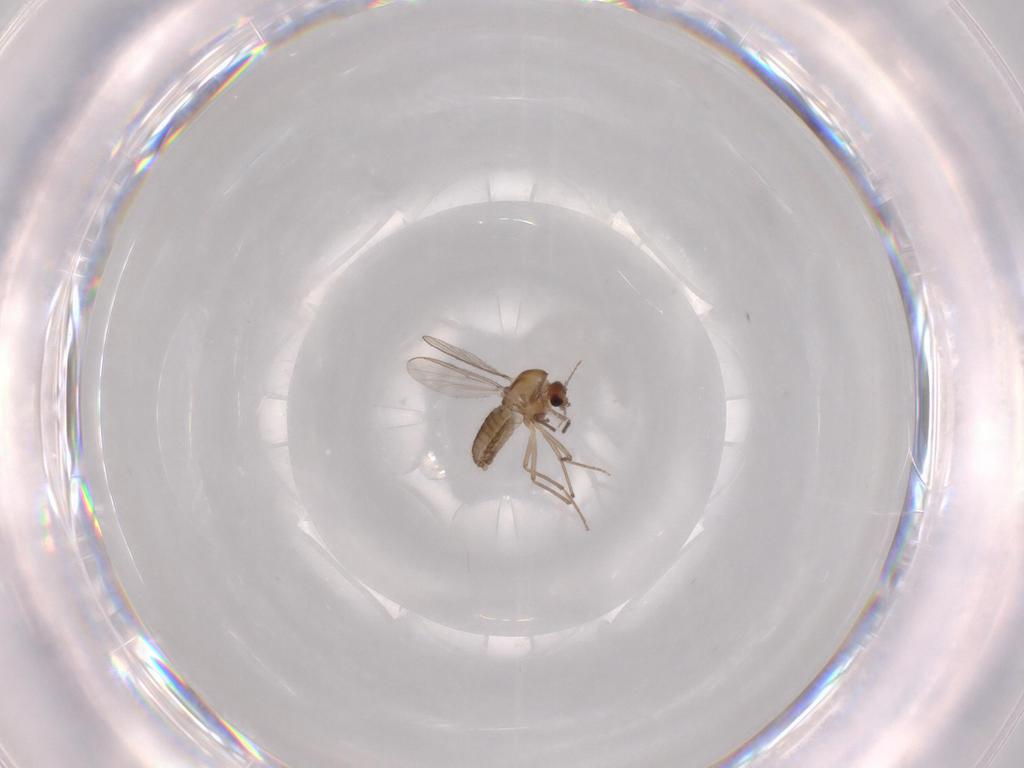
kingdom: Animalia
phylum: Arthropoda
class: Insecta
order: Diptera
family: Chironomidae
